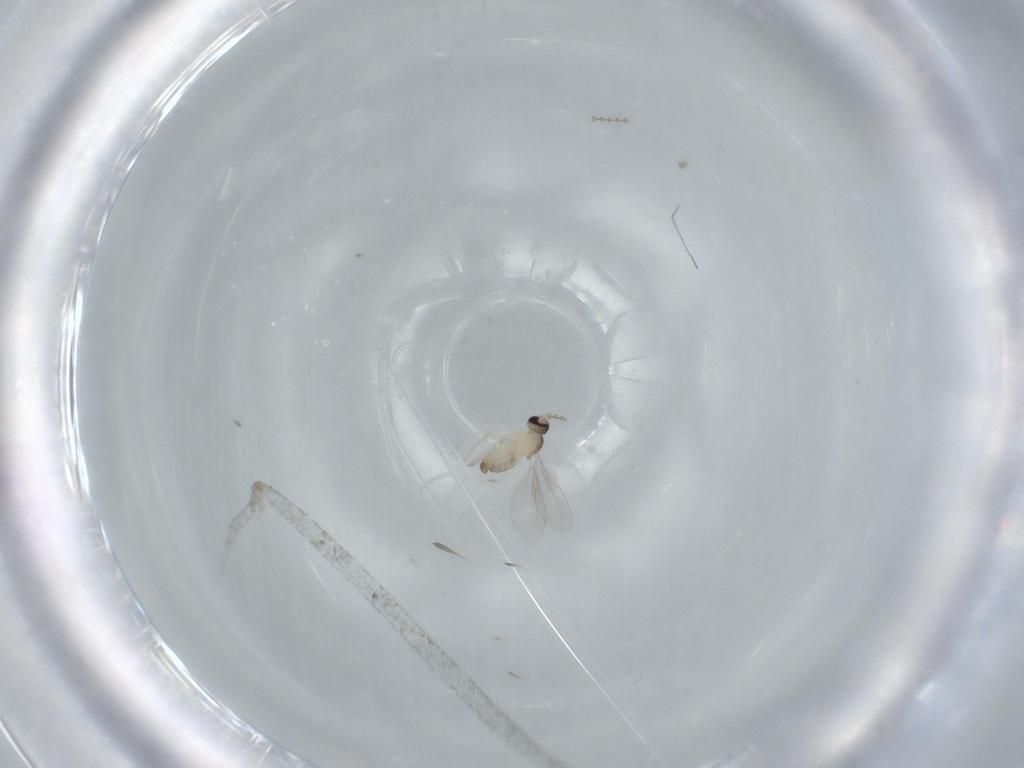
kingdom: Animalia
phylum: Arthropoda
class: Insecta
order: Diptera
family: Cecidomyiidae
